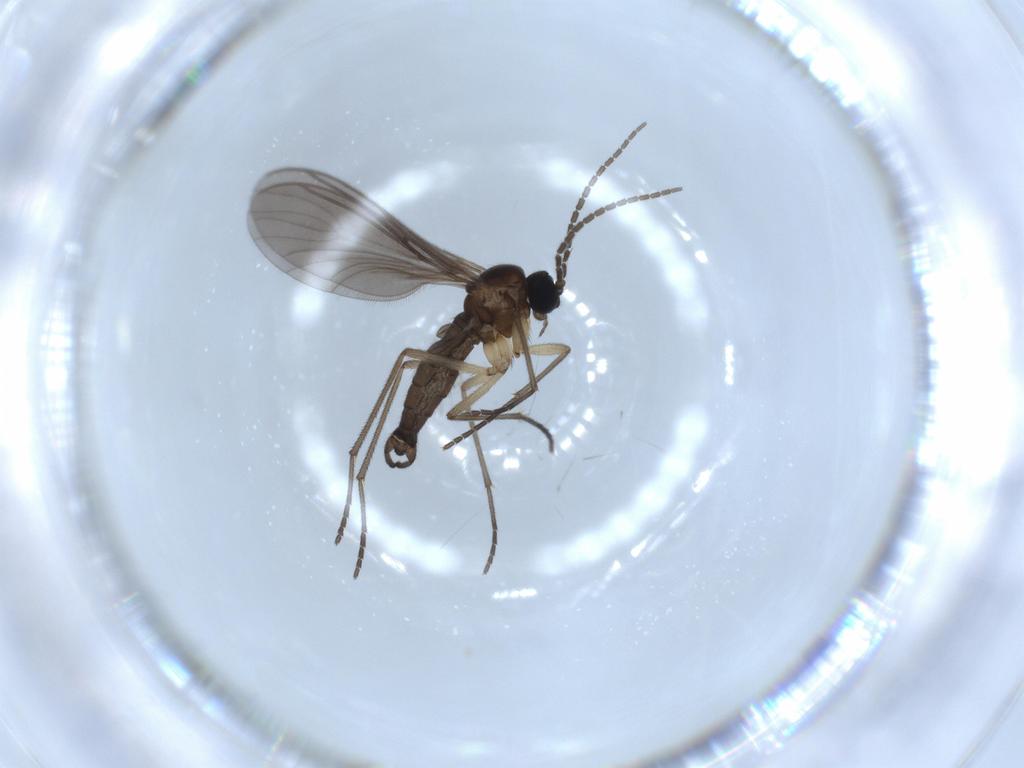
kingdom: Animalia
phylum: Arthropoda
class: Insecta
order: Diptera
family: Sciaridae
